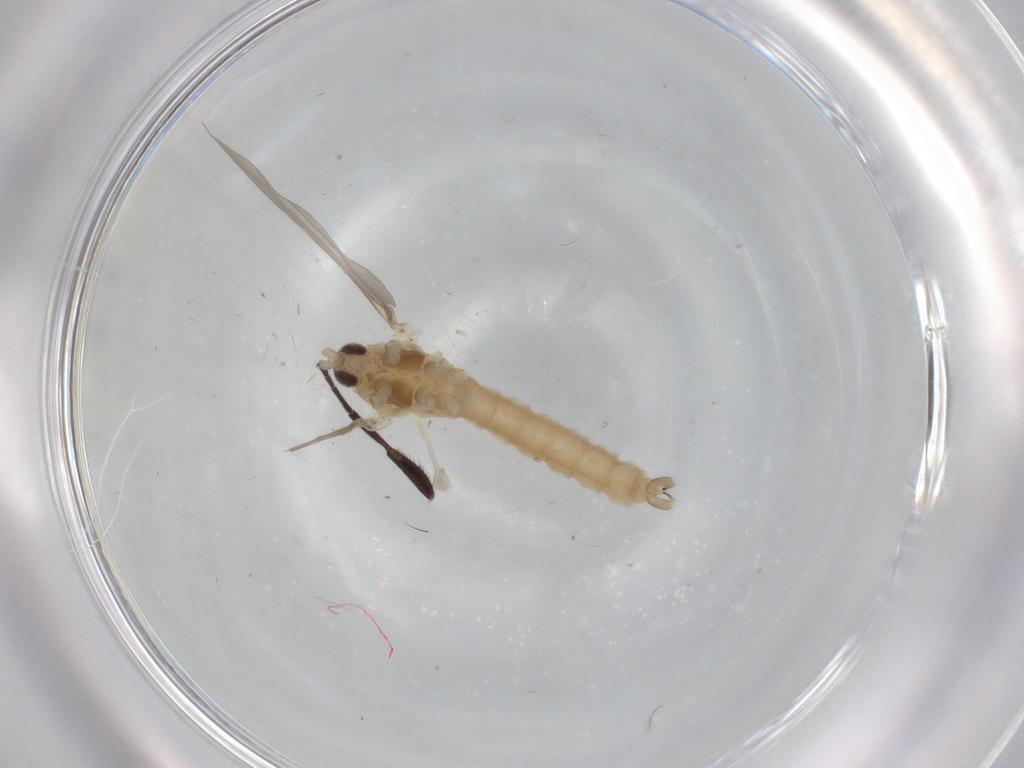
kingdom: Animalia
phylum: Arthropoda
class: Insecta
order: Diptera
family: Cecidomyiidae
